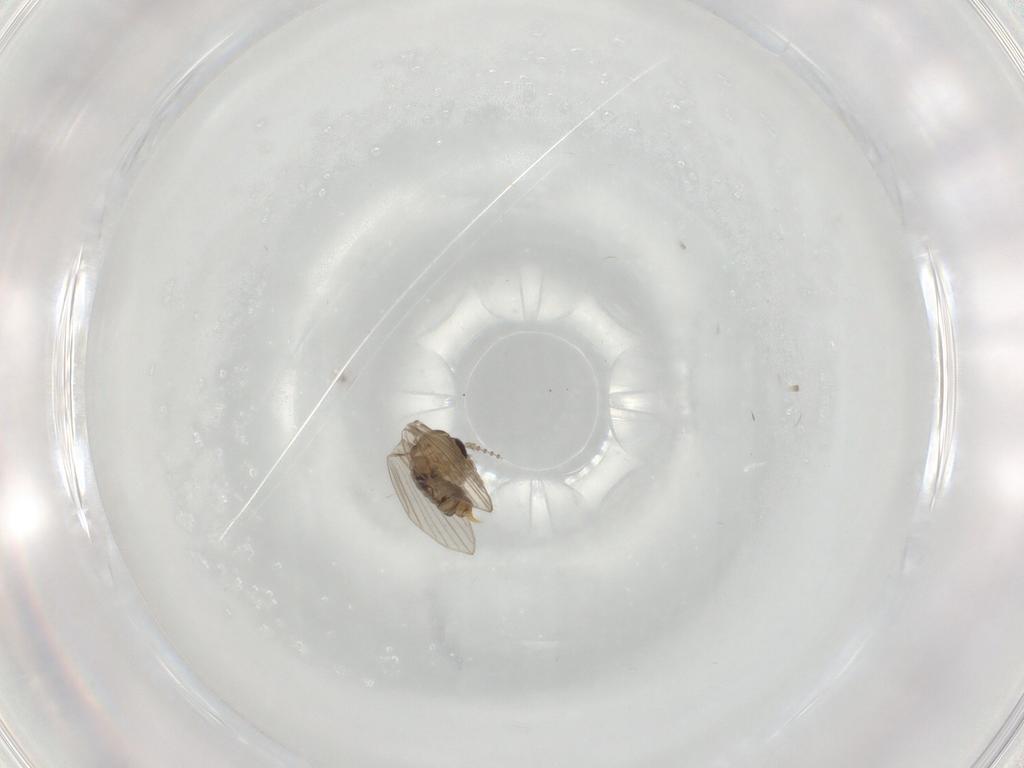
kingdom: Animalia
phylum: Arthropoda
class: Insecta
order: Diptera
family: Psychodidae
